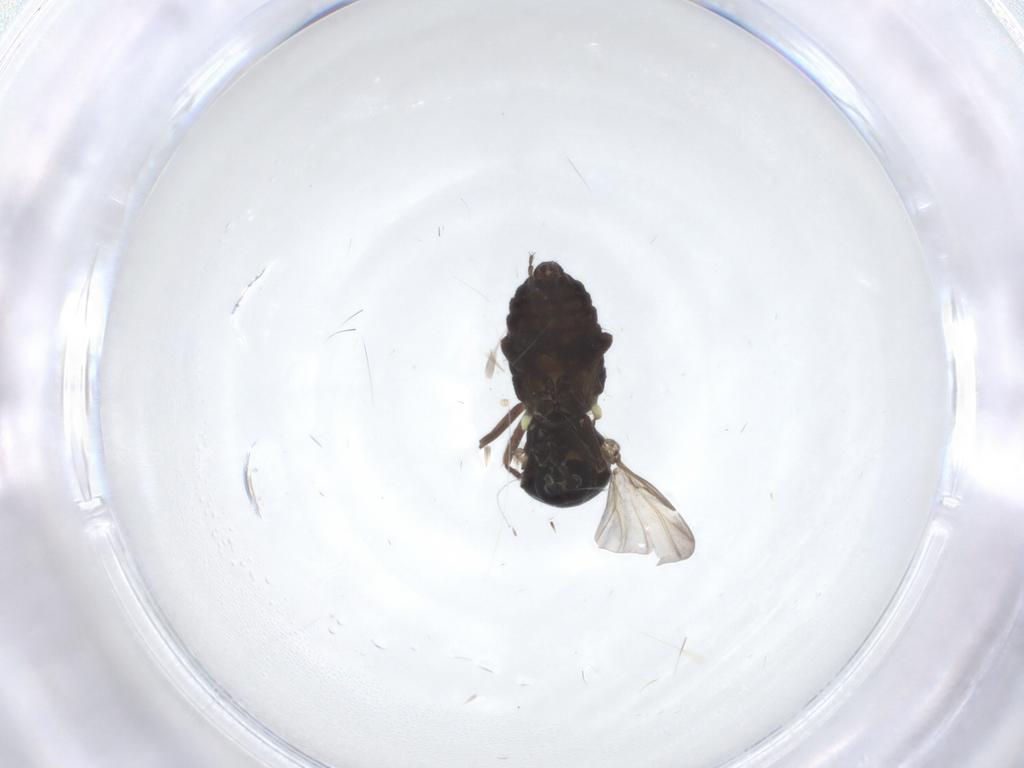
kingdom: Animalia
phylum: Arthropoda
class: Insecta
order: Diptera
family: Cecidomyiidae
